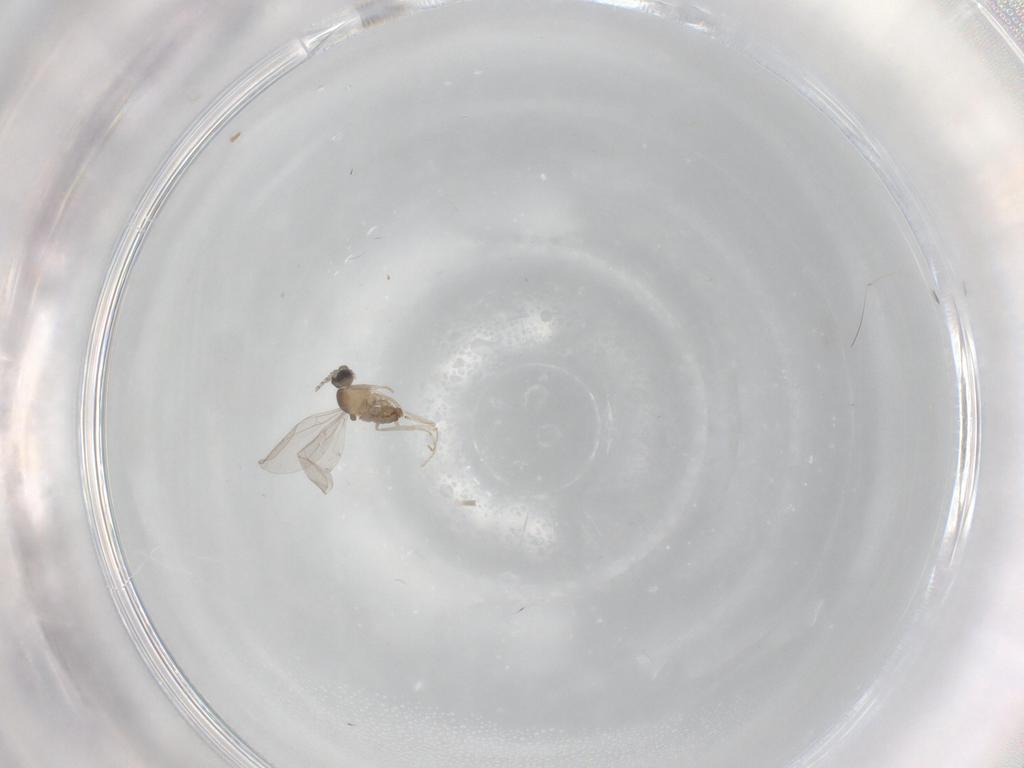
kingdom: Animalia
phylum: Arthropoda
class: Insecta
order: Diptera
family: Cecidomyiidae
